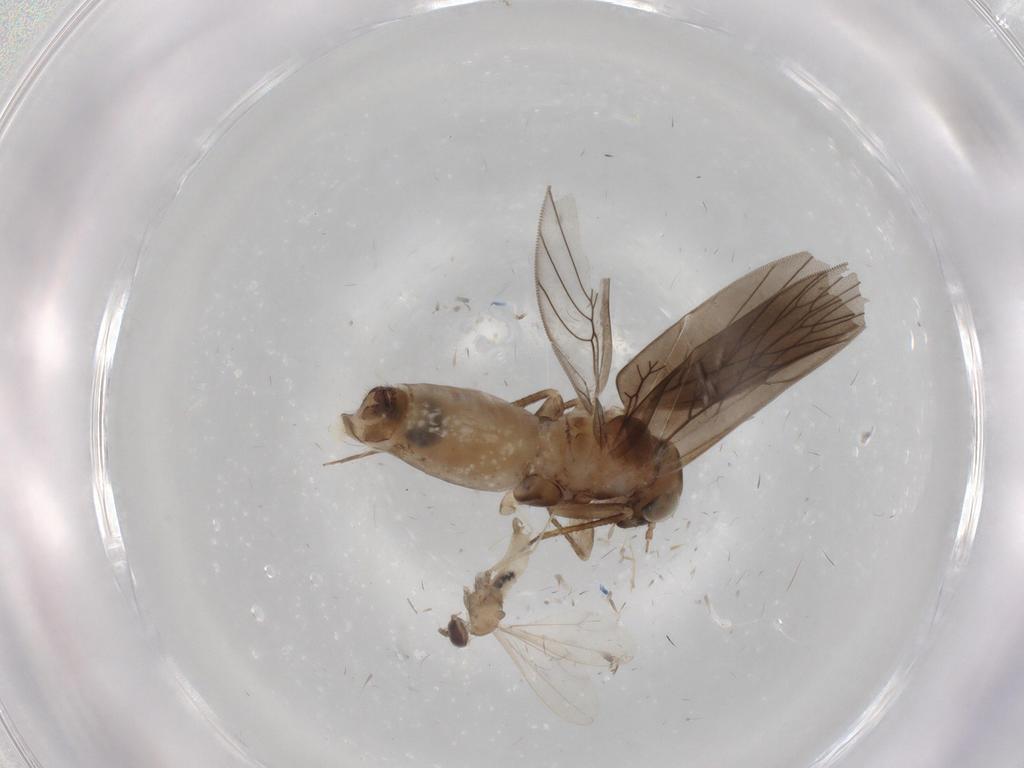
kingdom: Animalia
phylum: Arthropoda
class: Insecta
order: Psocodea
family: Lepidopsocidae
